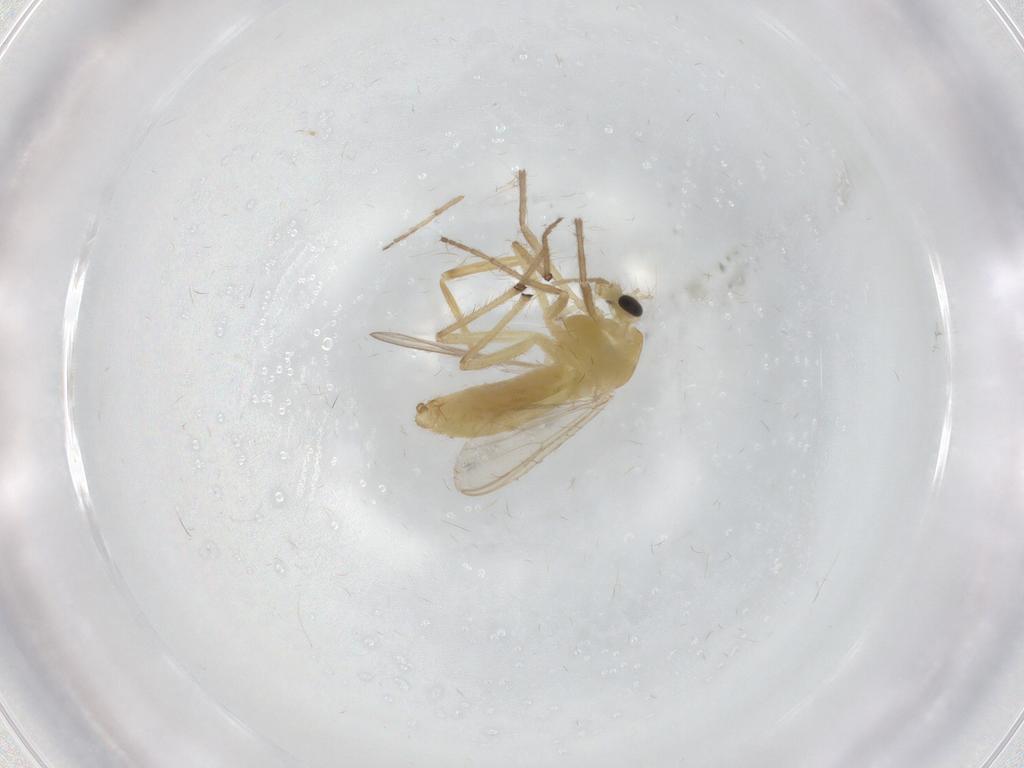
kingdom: Animalia
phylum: Arthropoda
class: Insecta
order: Diptera
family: Chironomidae
